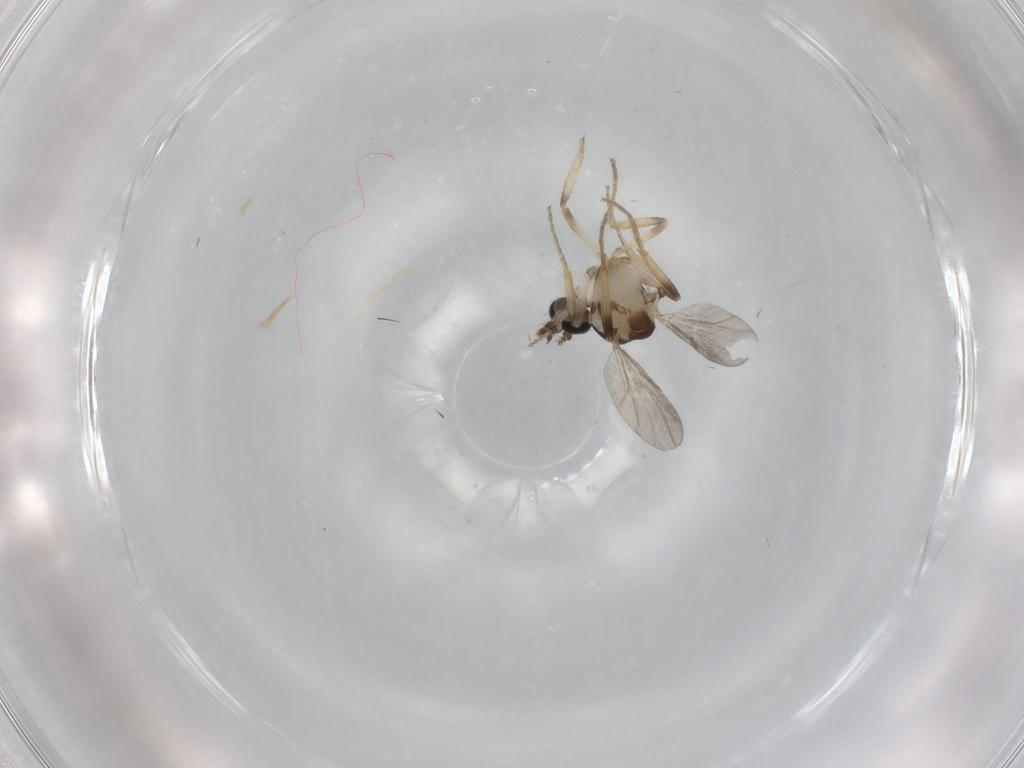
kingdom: Animalia
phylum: Arthropoda
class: Insecta
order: Diptera
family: Ceratopogonidae
